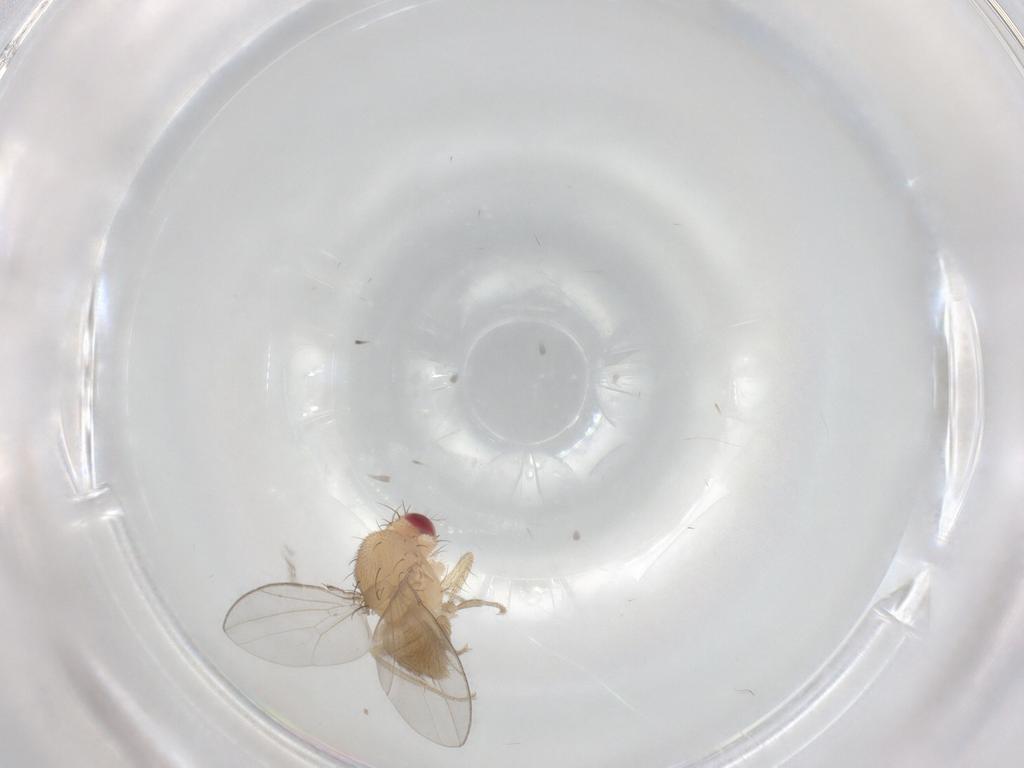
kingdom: Animalia
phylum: Arthropoda
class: Insecta
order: Diptera
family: Drosophilidae
